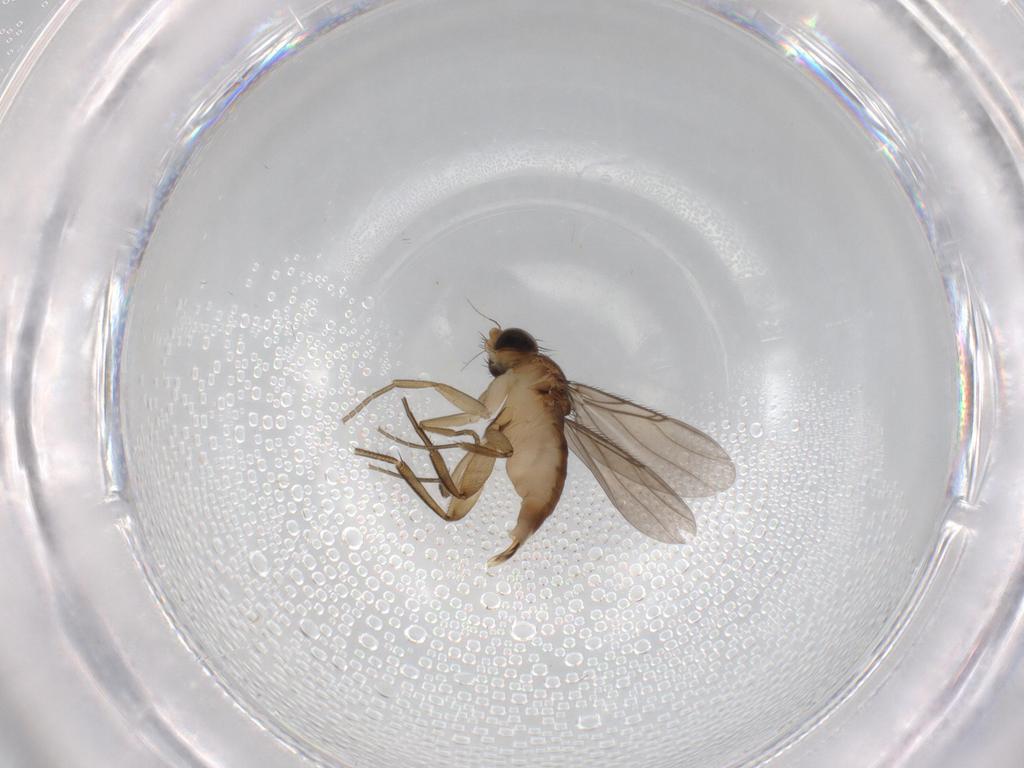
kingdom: Animalia
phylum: Arthropoda
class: Insecta
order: Diptera
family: Phoridae
